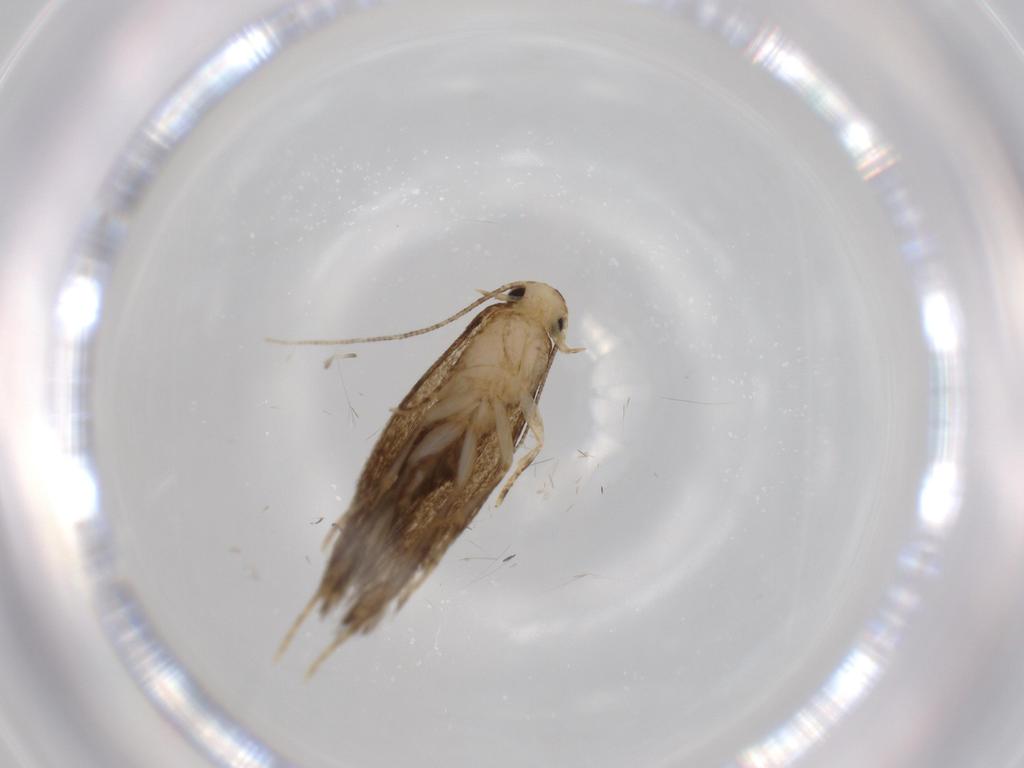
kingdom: Animalia
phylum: Arthropoda
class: Insecta
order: Lepidoptera
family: Tineidae
